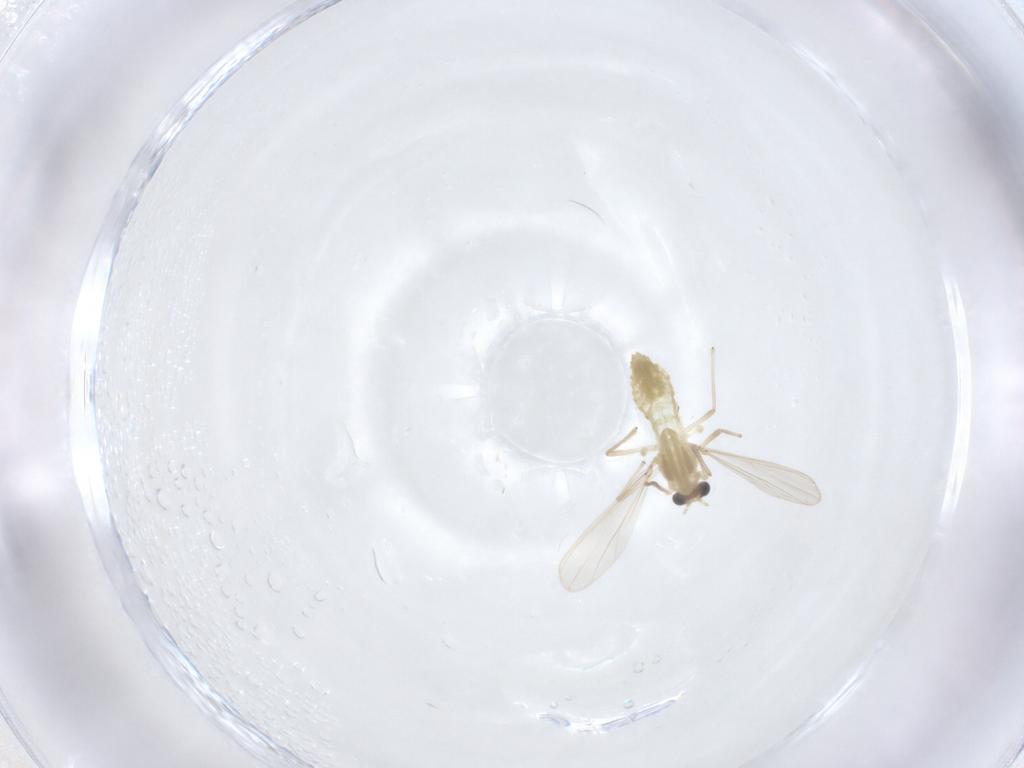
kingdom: Animalia
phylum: Arthropoda
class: Insecta
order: Diptera
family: Chironomidae
